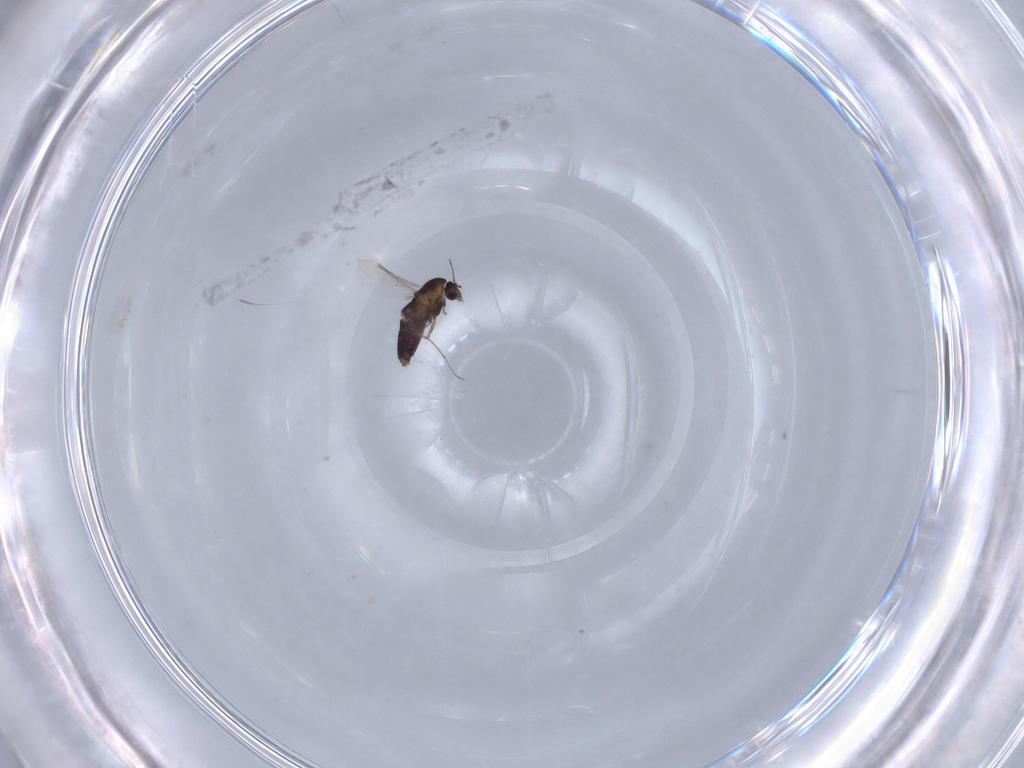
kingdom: Animalia
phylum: Arthropoda
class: Insecta
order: Diptera
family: Chironomidae
